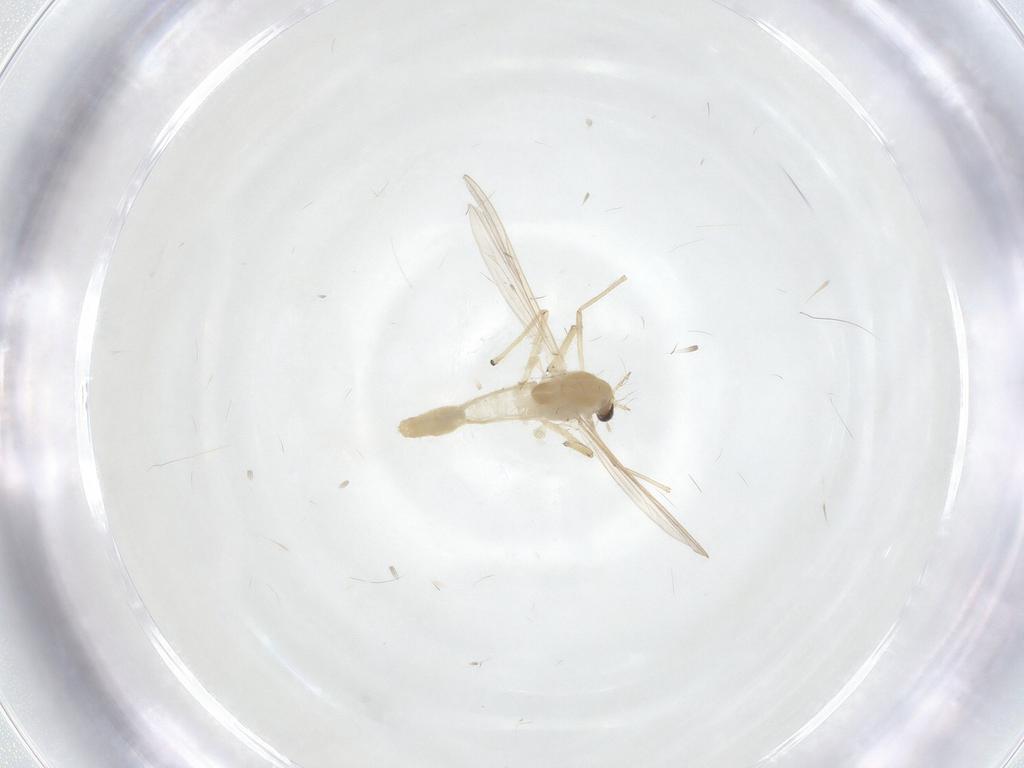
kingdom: Animalia
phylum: Arthropoda
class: Insecta
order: Diptera
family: Chironomidae
